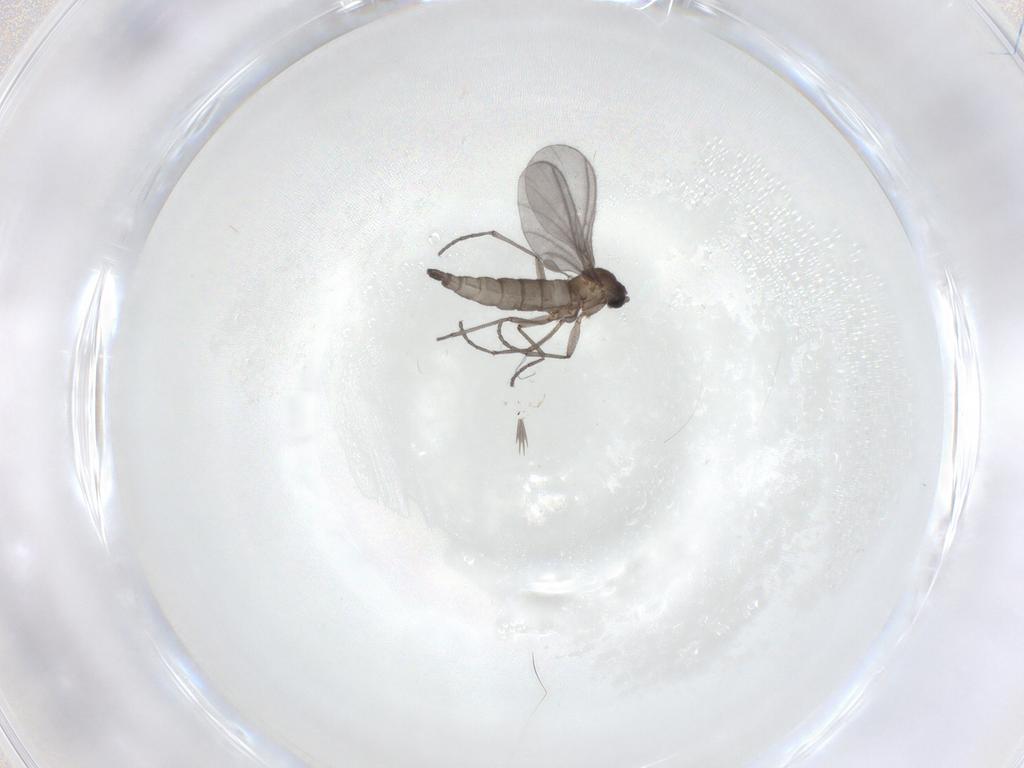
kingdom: Animalia
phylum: Arthropoda
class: Insecta
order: Diptera
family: Sciaridae
